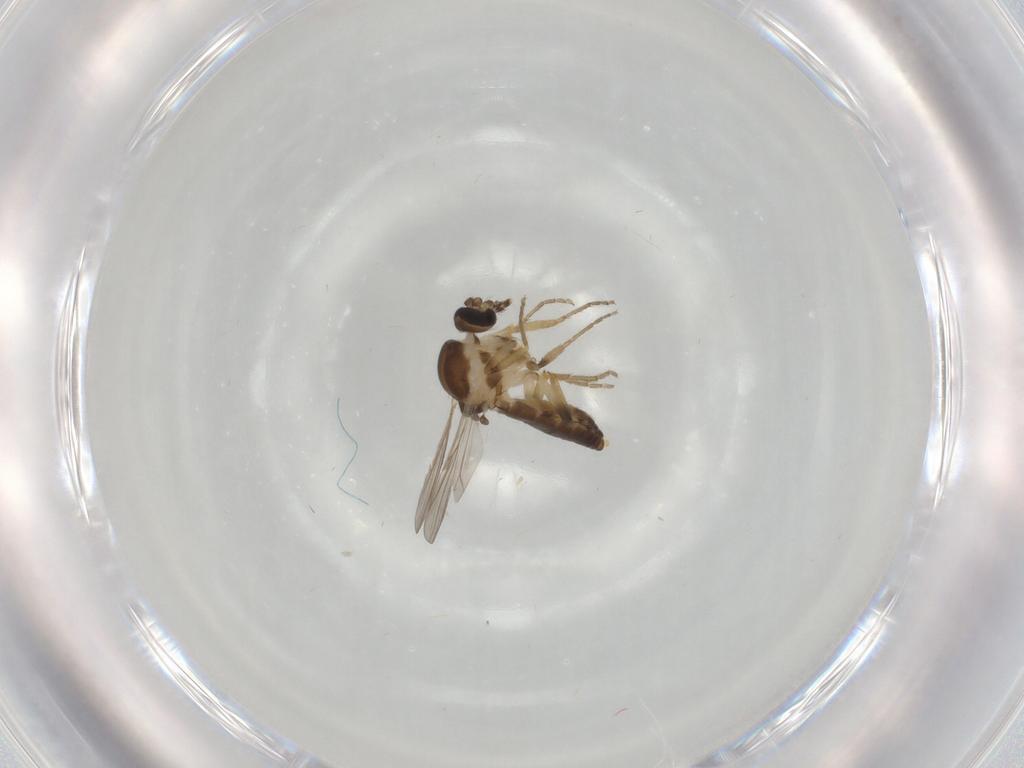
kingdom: Animalia
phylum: Arthropoda
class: Insecta
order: Diptera
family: Ceratopogonidae
